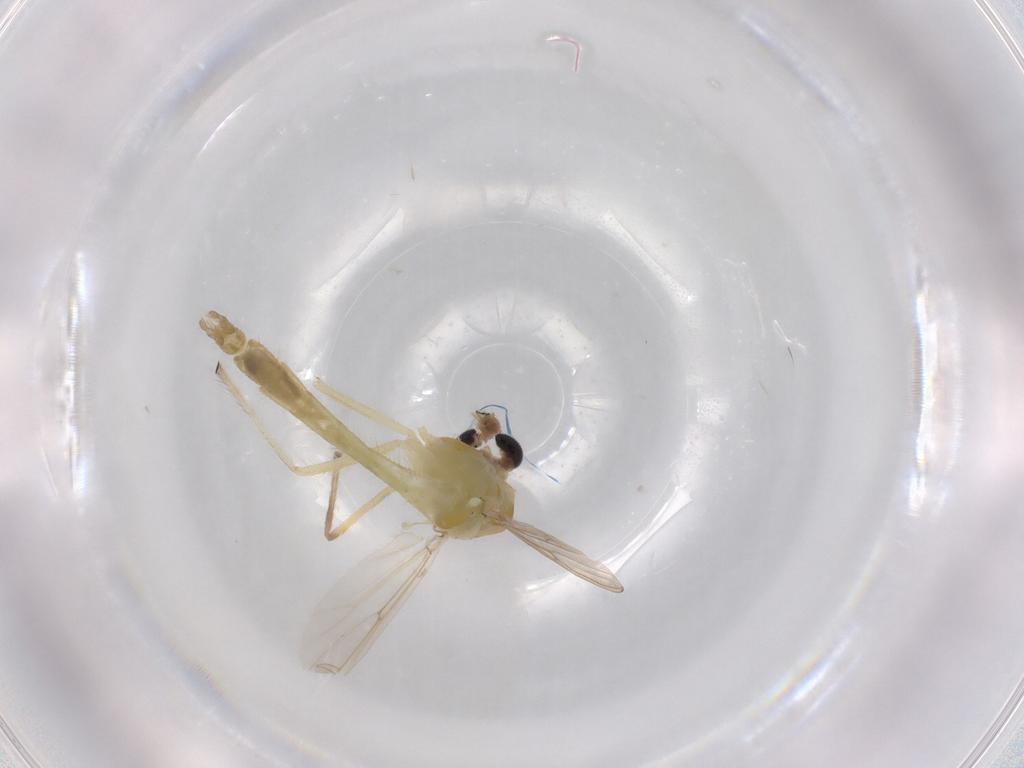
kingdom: Animalia
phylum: Arthropoda
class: Insecta
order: Diptera
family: Chironomidae
